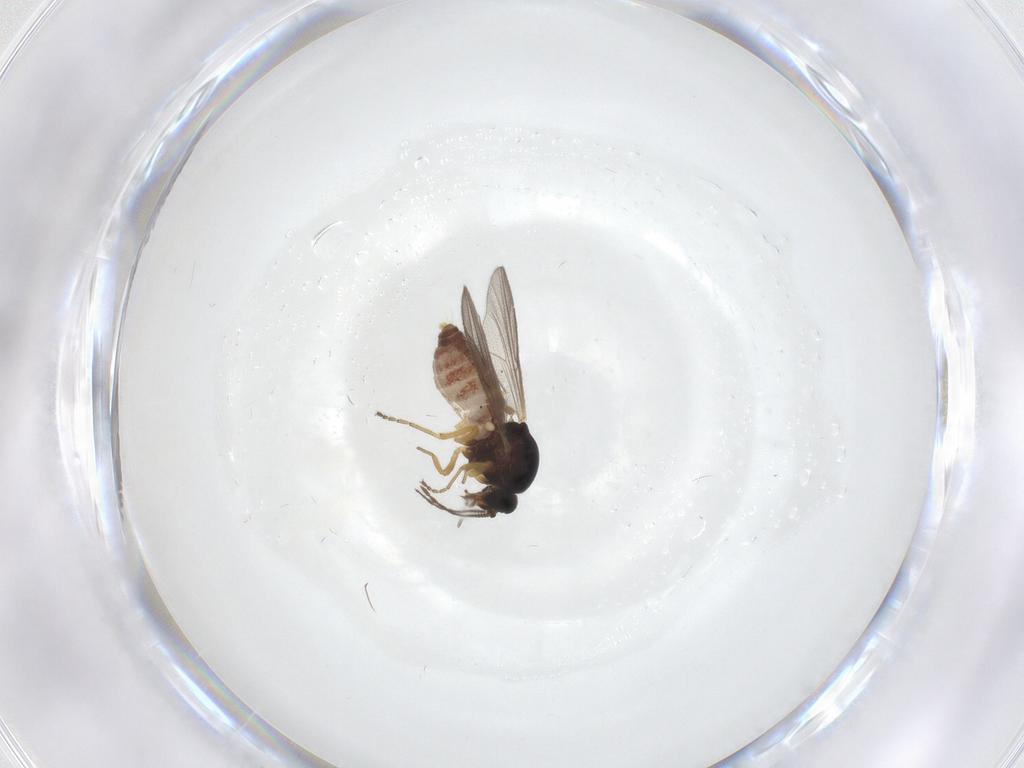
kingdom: Animalia
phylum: Arthropoda
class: Insecta
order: Diptera
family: Ceratopogonidae
